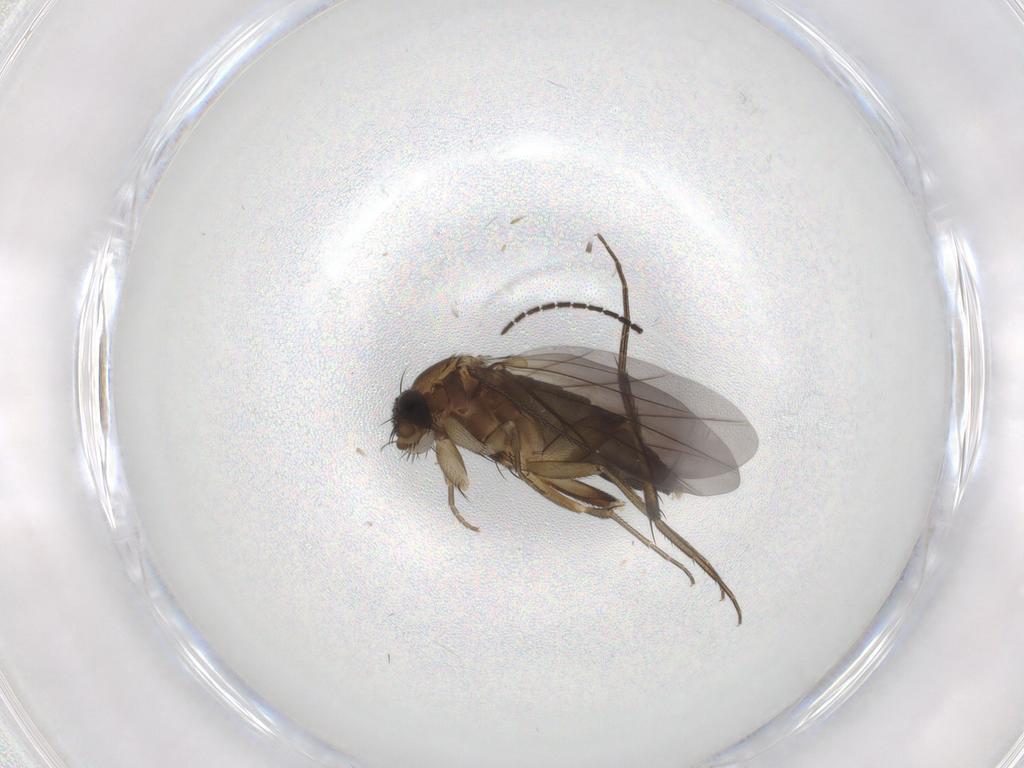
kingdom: Animalia
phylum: Arthropoda
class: Insecta
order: Diptera
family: Phoridae
